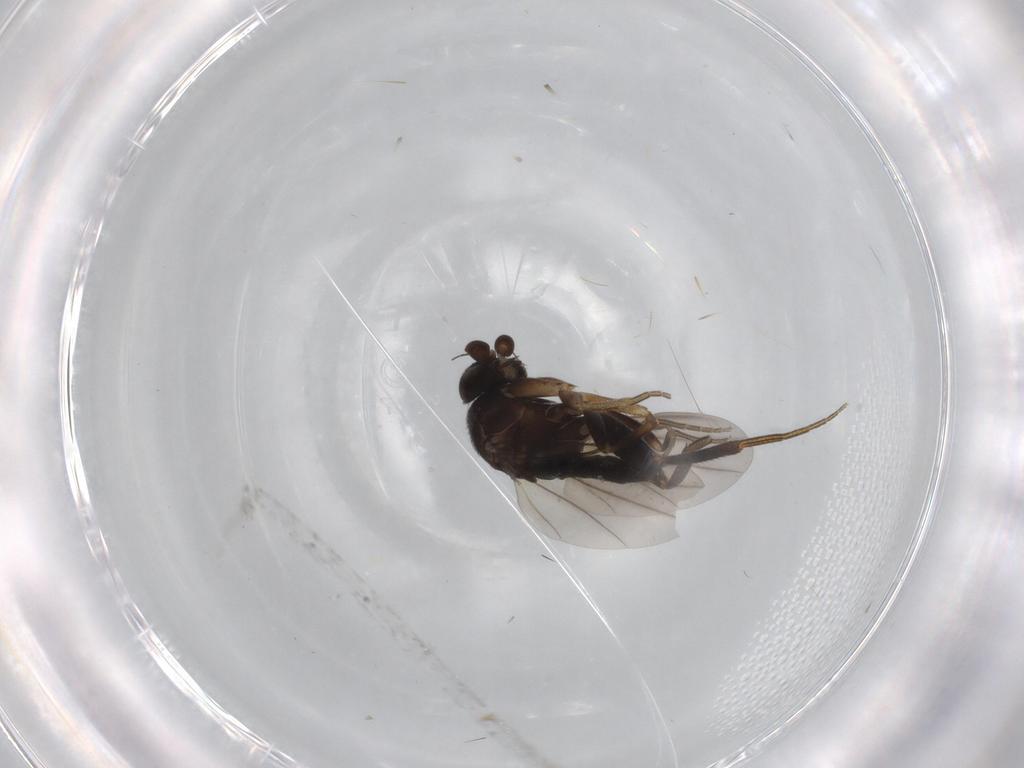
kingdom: Animalia
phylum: Arthropoda
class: Insecta
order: Diptera
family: Phoridae
